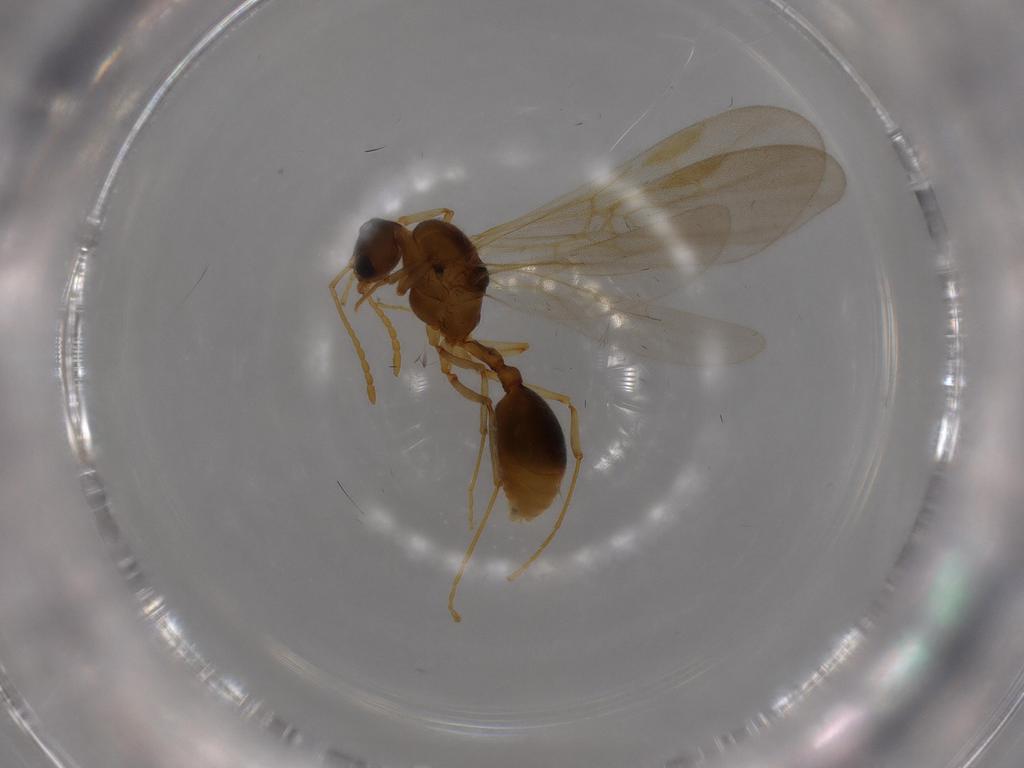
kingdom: Animalia
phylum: Arthropoda
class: Insecta
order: Hymenoptera
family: Formicidae
